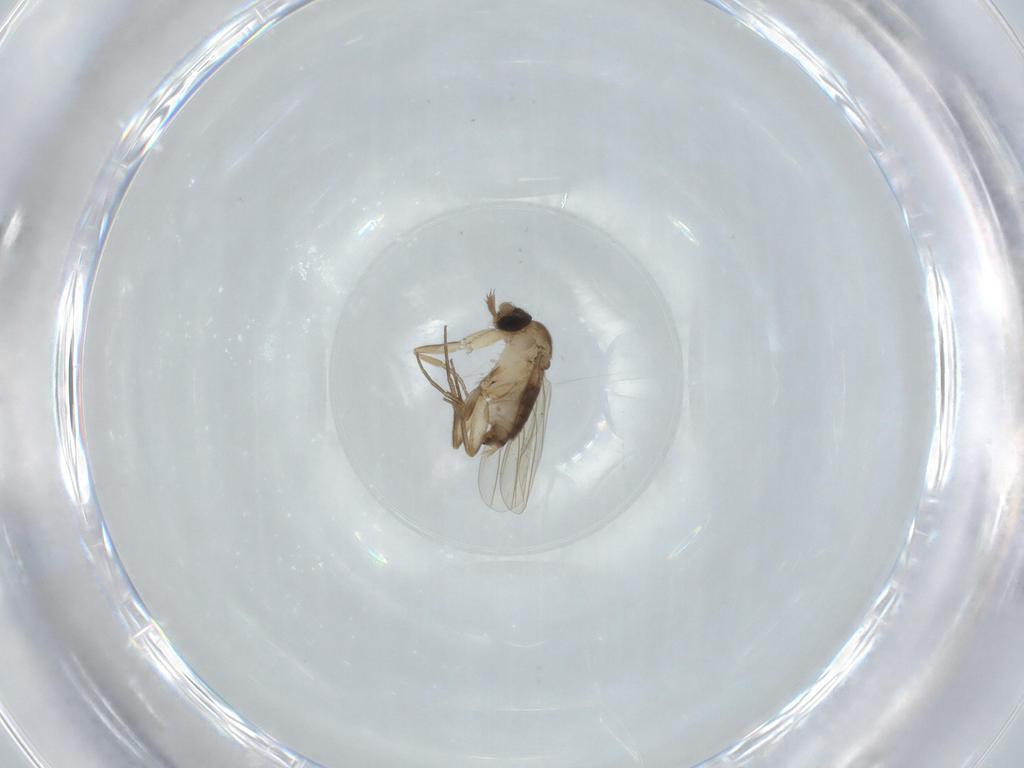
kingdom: Animalia
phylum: Arthropoda
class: Insecta
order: Diptera
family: Phoridae
